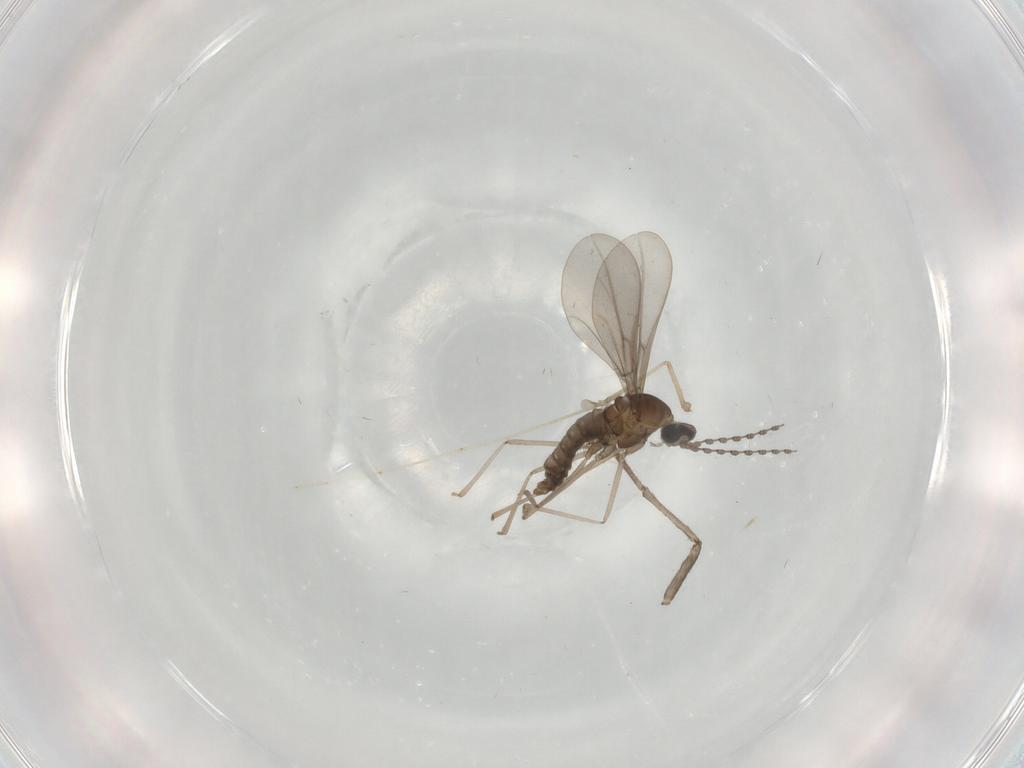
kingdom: Animalia
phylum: Arthropoda
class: Insecta
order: Diptera
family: Psychodidae
